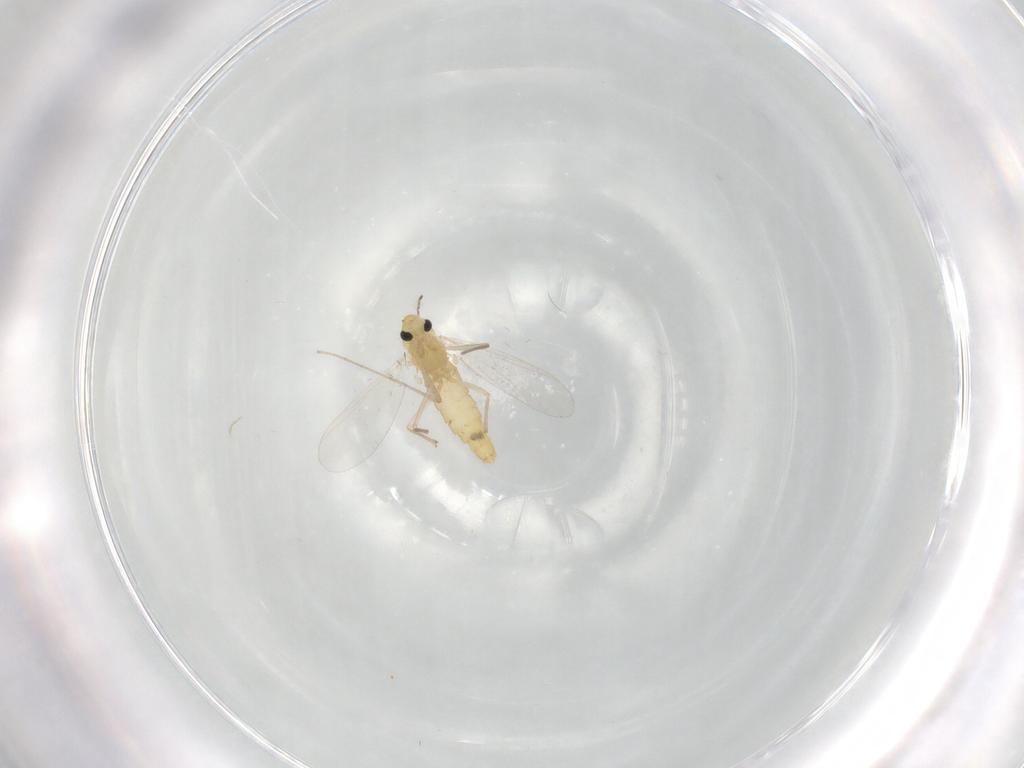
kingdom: Animalia
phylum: Arthropoda
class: Insecta
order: Diptera
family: Chironomidae
